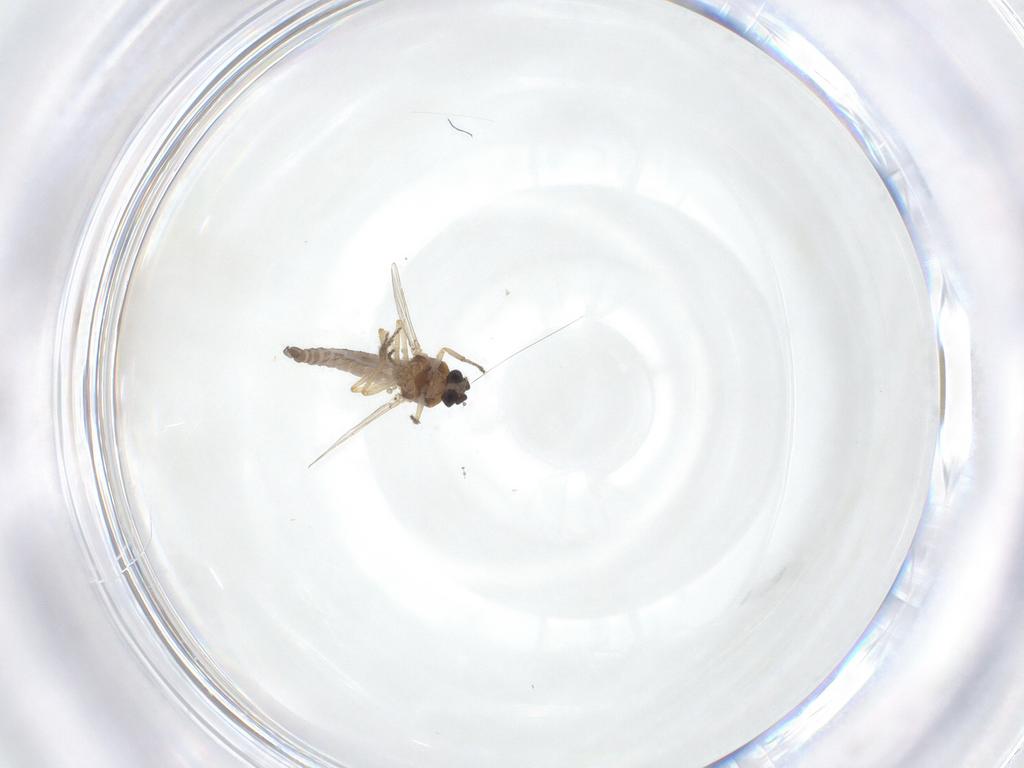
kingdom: Animalia
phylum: Arthropoda
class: Insecta
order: Diptera
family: Ceratopogonidae
